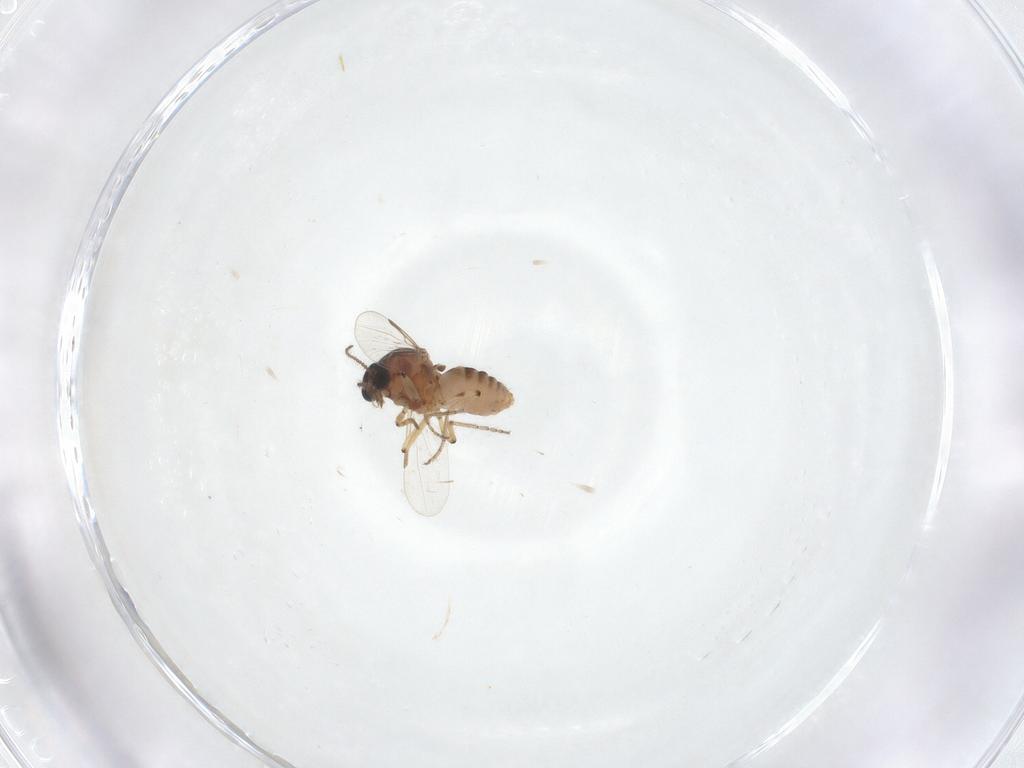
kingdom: Animalia
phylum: Arthropoda
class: Insecta
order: Diptera
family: Ceratopogonidae
